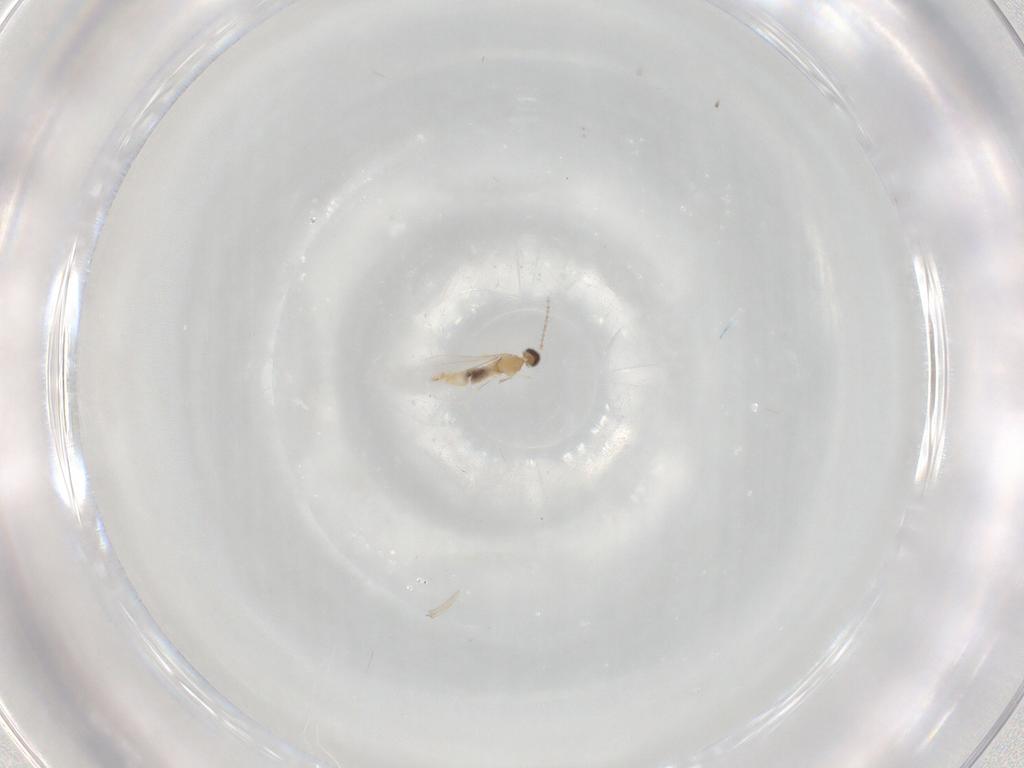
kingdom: Animalia
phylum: Arthropoda
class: Insecta
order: Diptera
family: Cecidomyiidae
